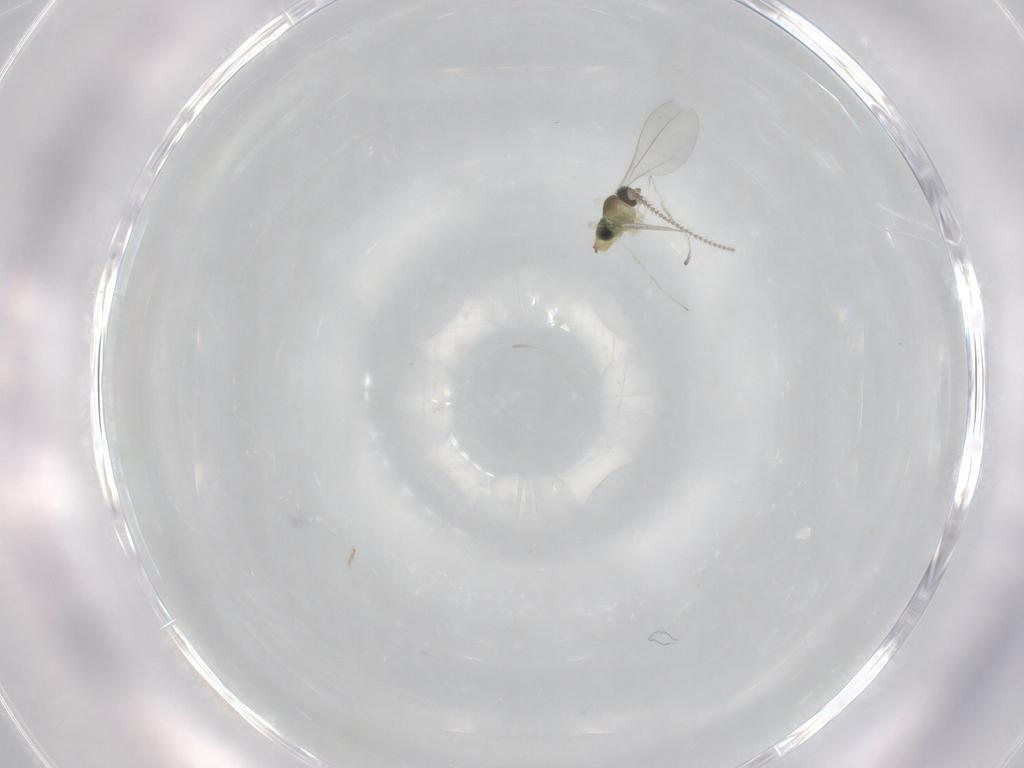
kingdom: Animalia
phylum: Arthropoda
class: Insecta
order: Diptera
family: Cecidomyiidae
